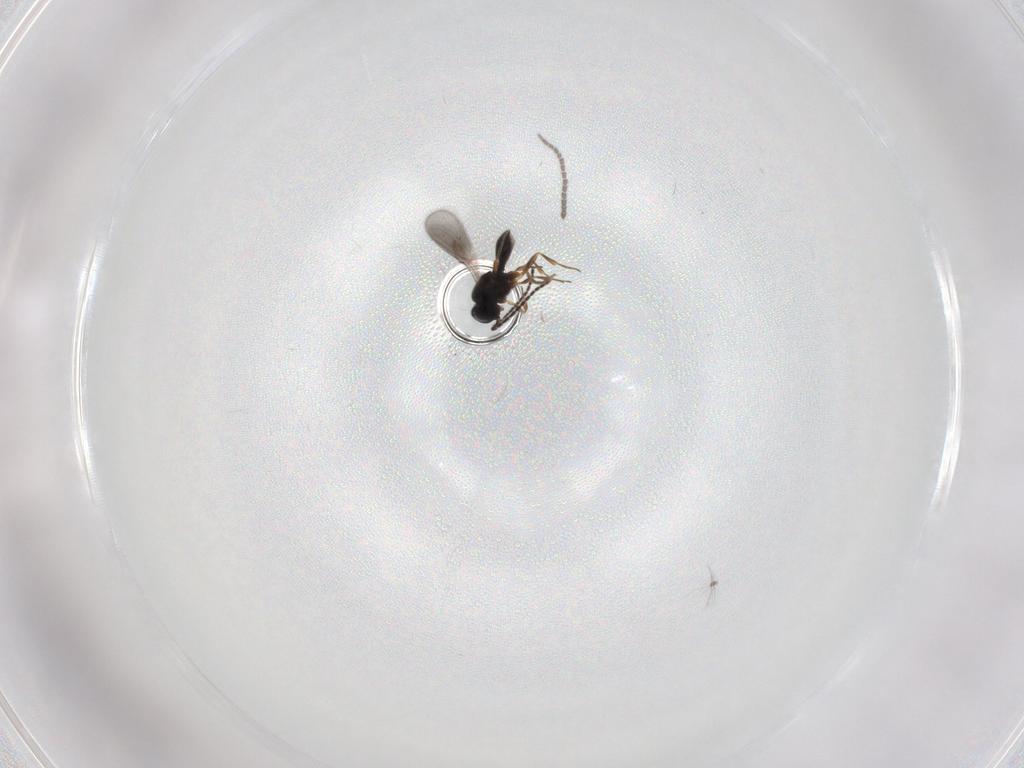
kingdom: Animalia
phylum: Arthropoda
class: Insecta
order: Hymenoptera
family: Scelionidae
